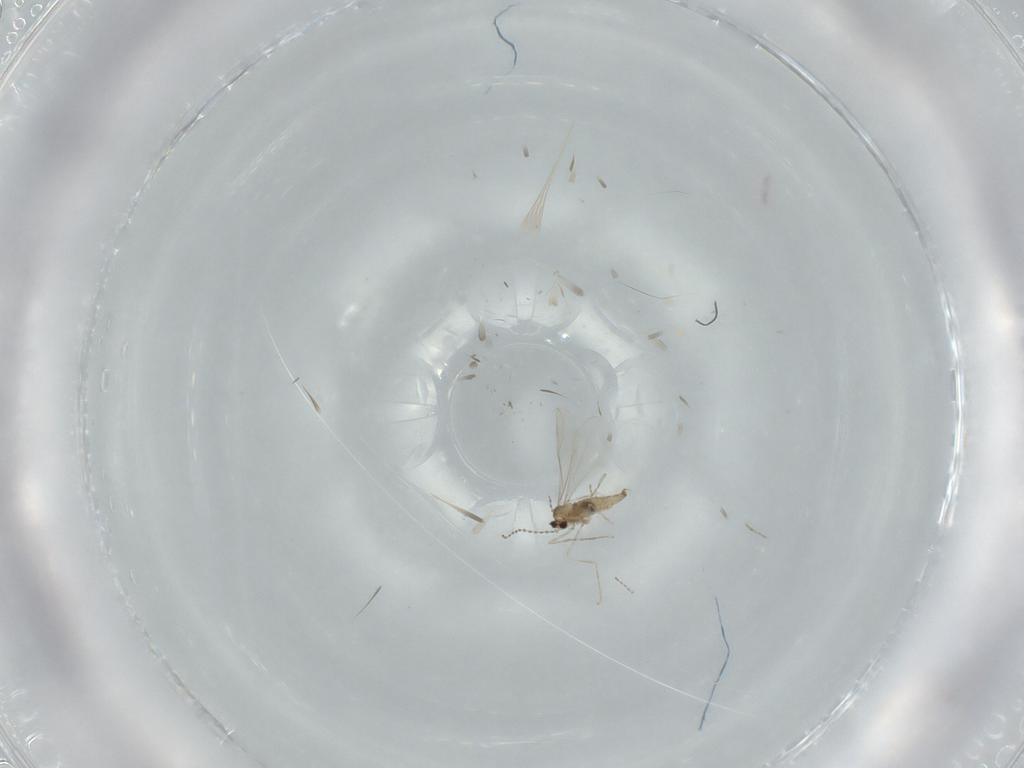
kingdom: Animalia
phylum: Arthropoda
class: Insecta
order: Diptera
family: Cecidomyiidae
